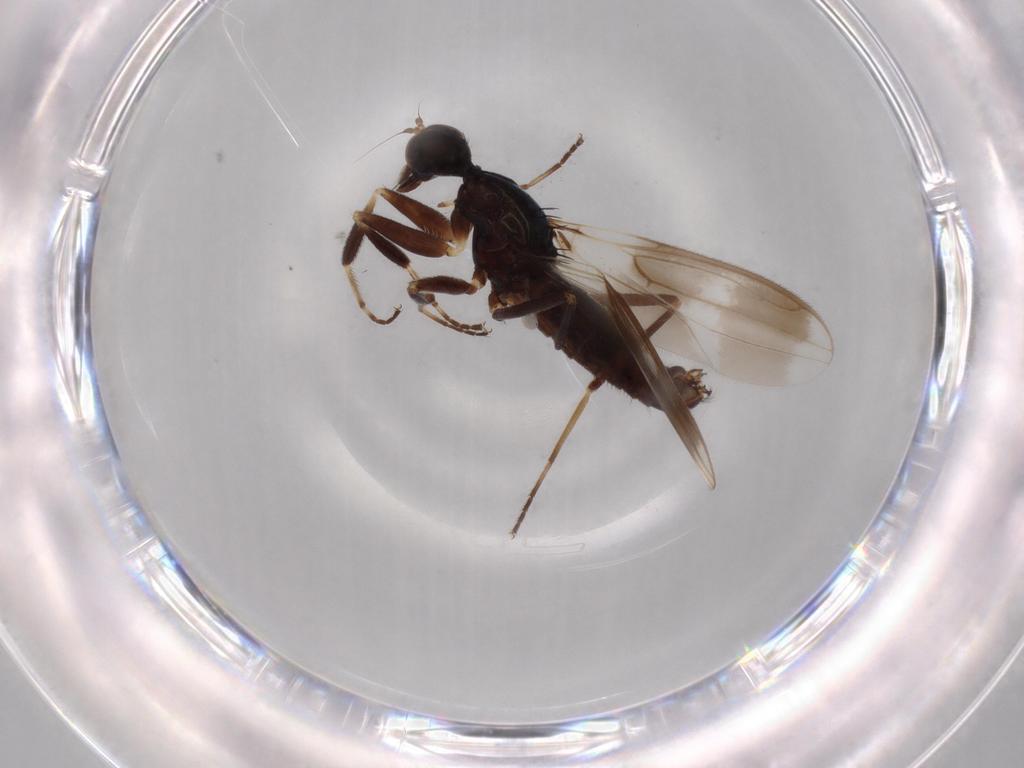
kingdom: Animalia
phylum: Arthropoda
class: Insecta
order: Diptera
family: Hybotidae
